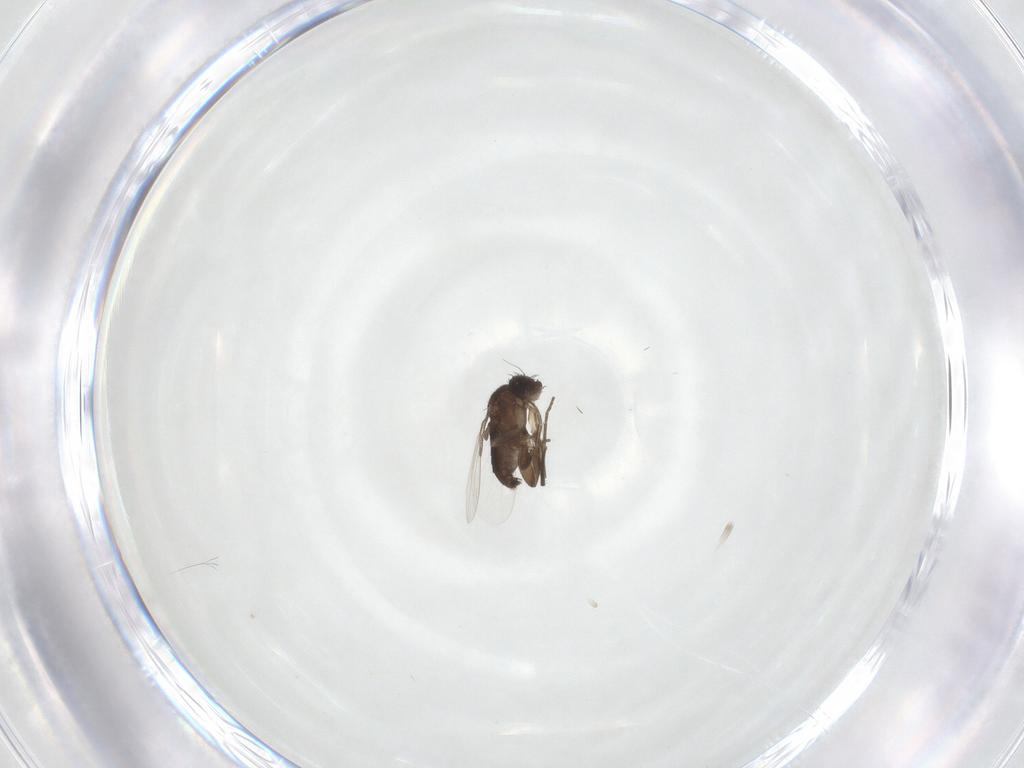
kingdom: Animalia
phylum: Arthropoda
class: Insecta
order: Diptera
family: Phoridae
